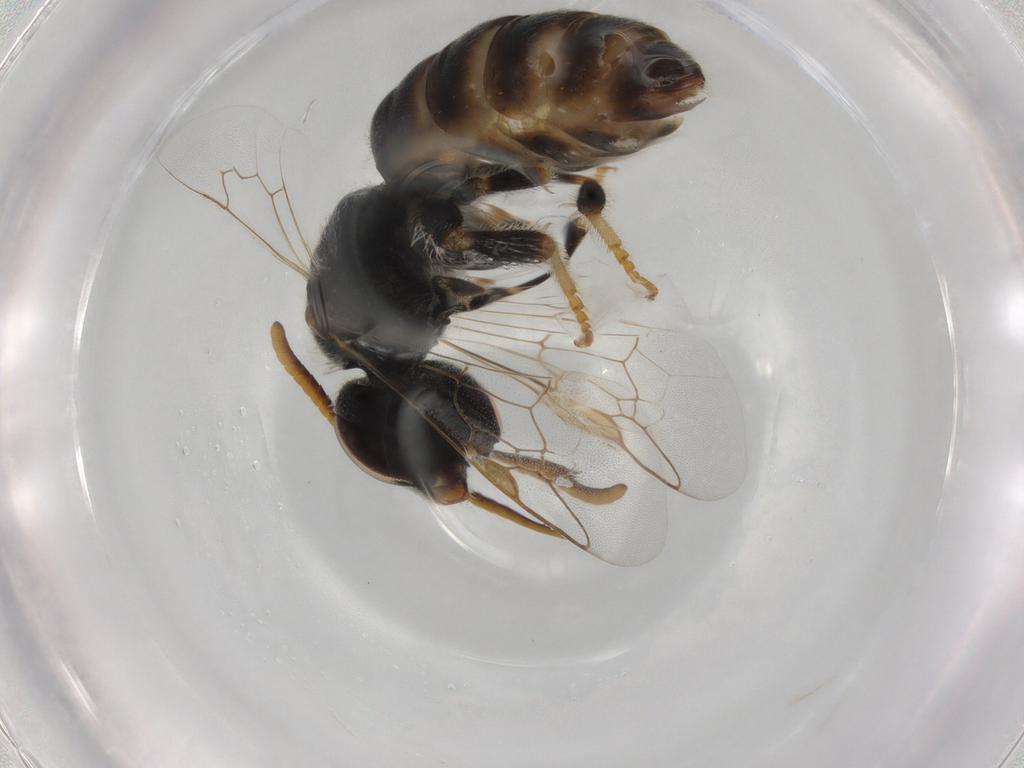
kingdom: Animalia
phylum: Arthropoda
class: Insecta
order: Hymenoptera
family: Halictidae
